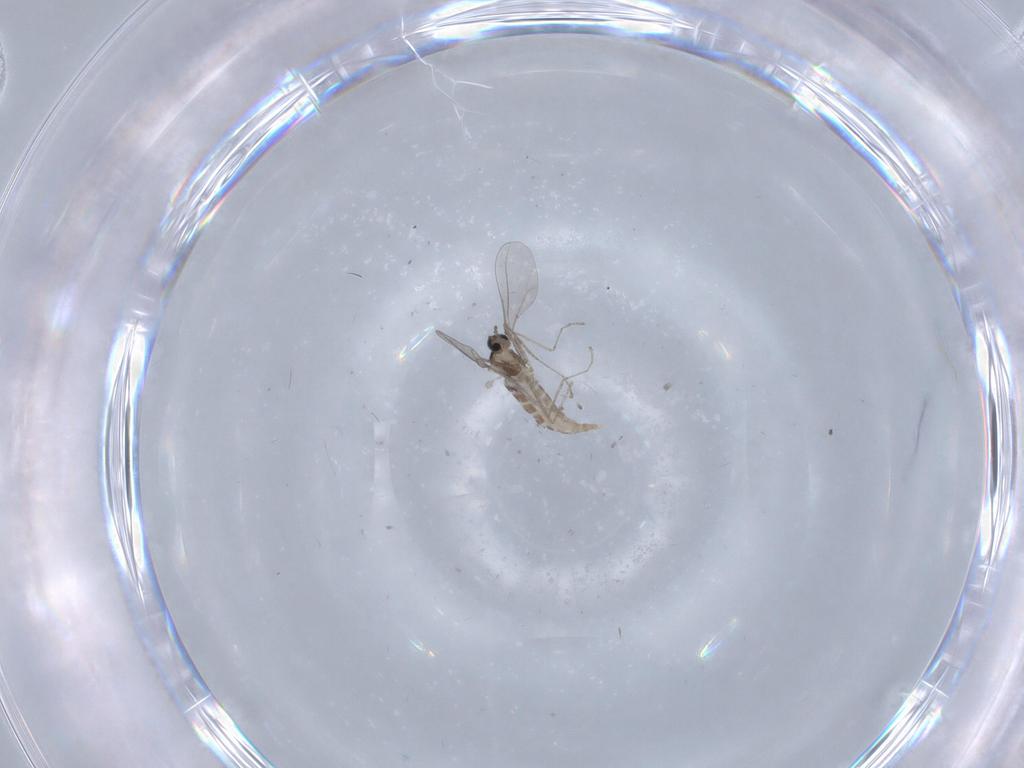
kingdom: Animalia
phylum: Arthropoda
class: Insecta
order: Diptera
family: Chironomidae
